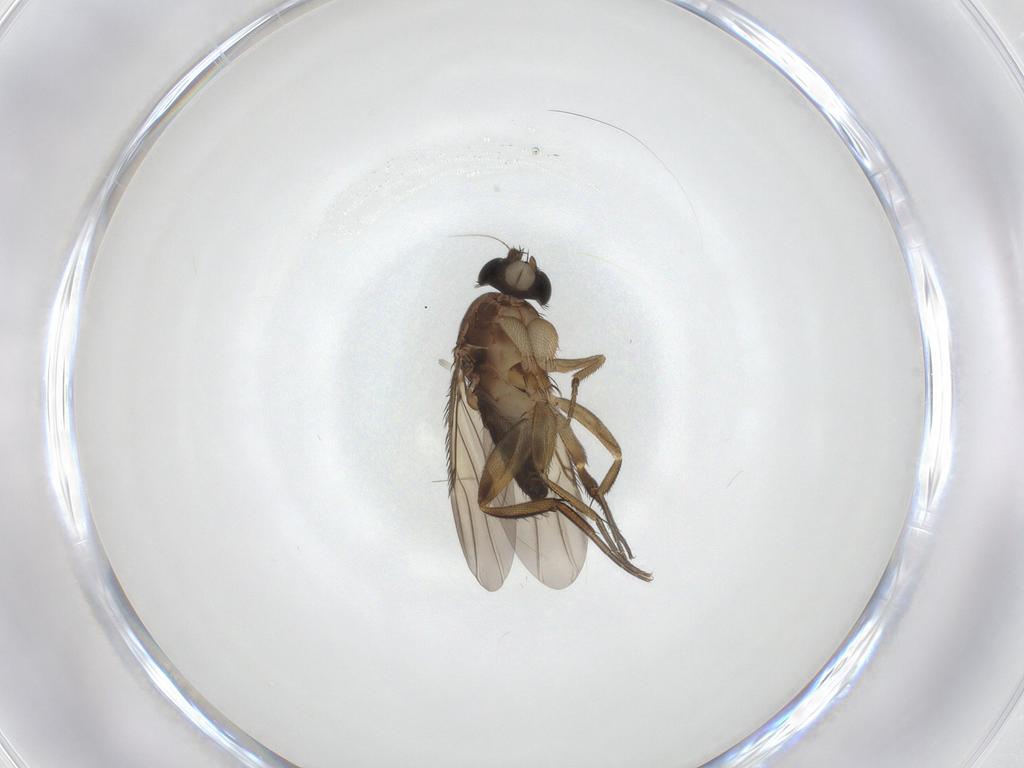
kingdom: Animalia
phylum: Arthropoda
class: Insecta
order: Diptera
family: Phoridae
